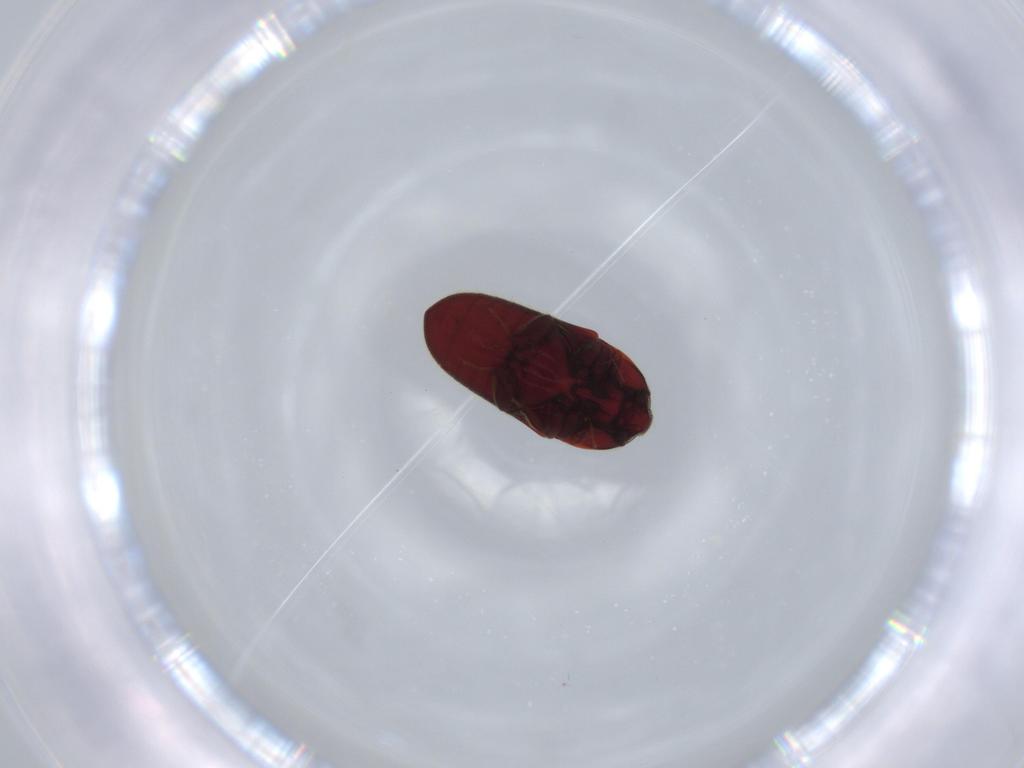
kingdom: Animalia
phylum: Arthropoda
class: Insecta
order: Coleoptera
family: Throscidae
